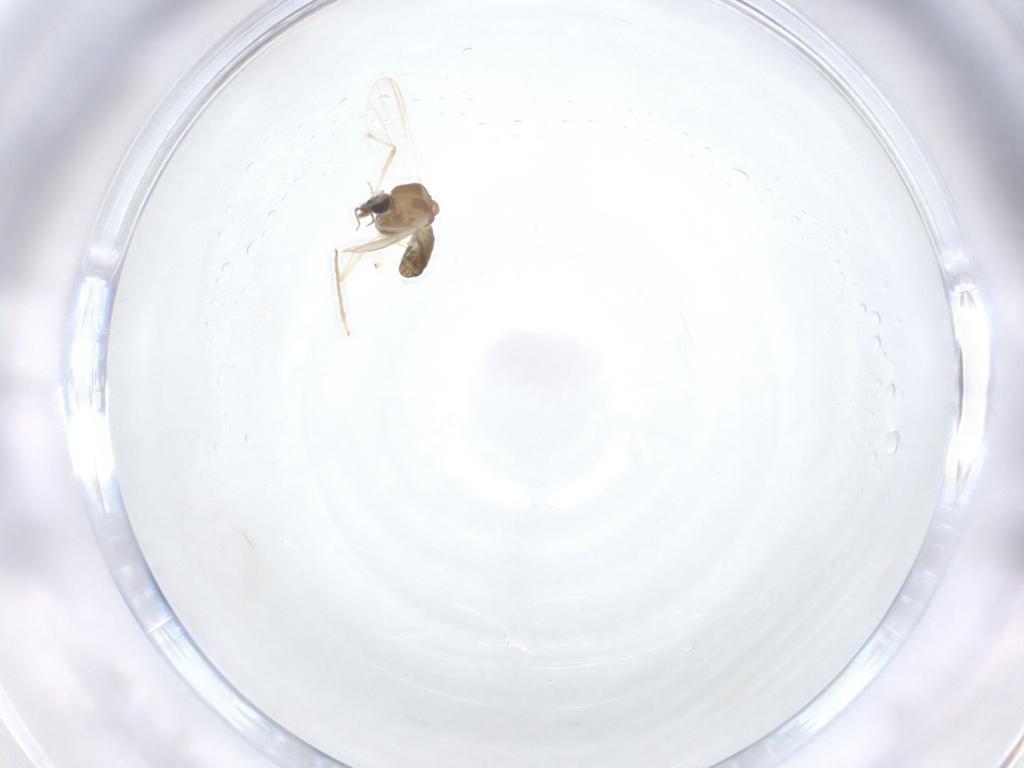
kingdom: Animalia
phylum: Arthropoda
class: Insecta
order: Diptera
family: Chironomidae
